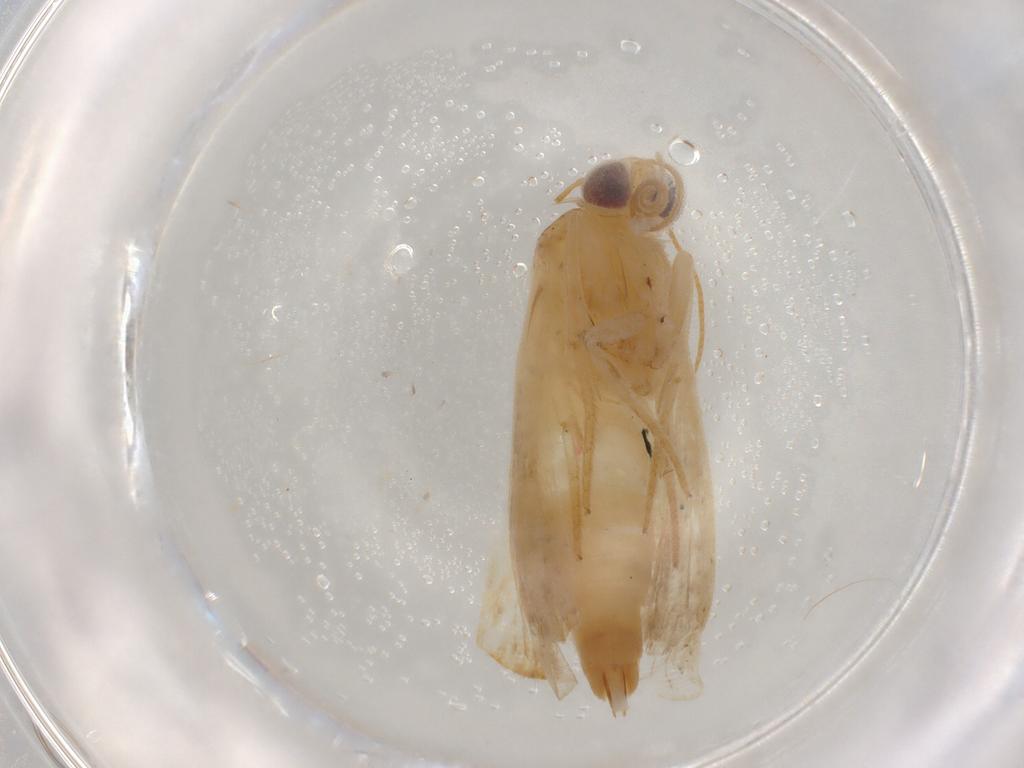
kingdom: Animalia
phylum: Arthropoda
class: Insecta
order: Lepidoptera
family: Noctuidae
